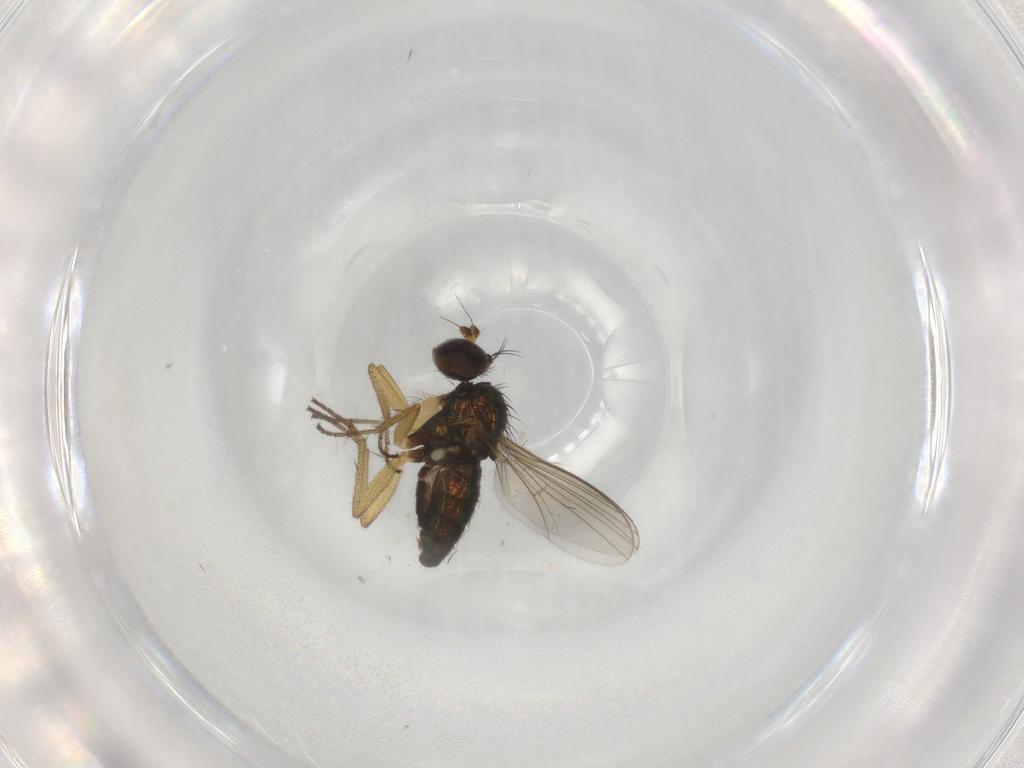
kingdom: Animalia
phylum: Arthropoda
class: Insecta
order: Diptera
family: Dolichopodidae
